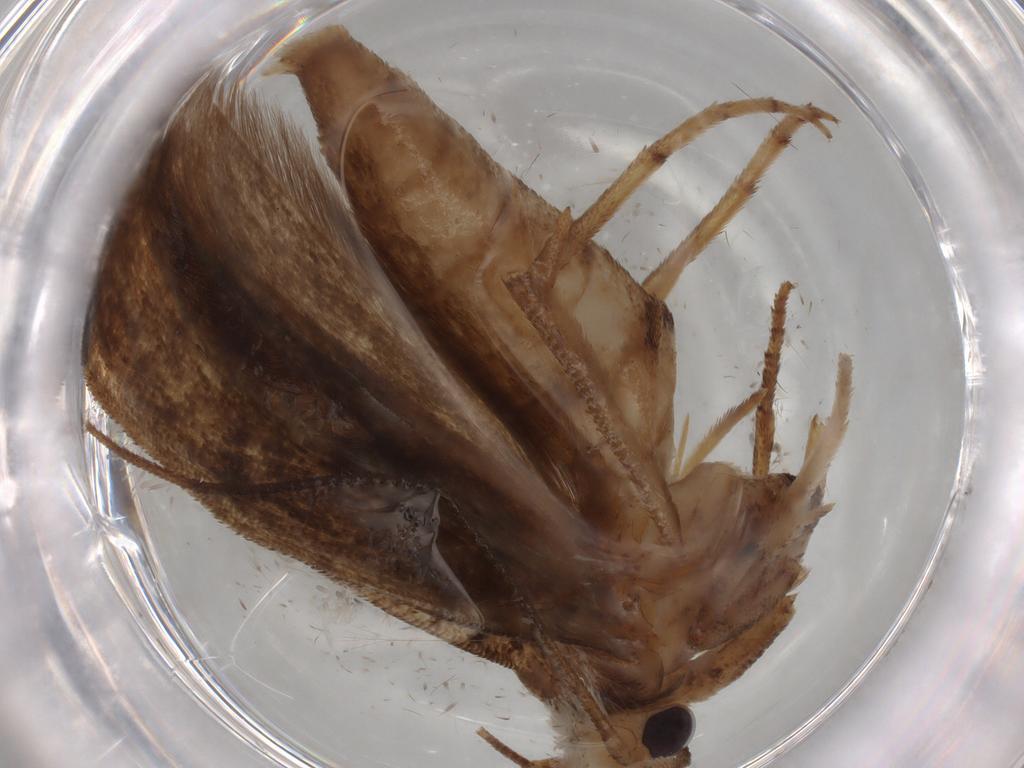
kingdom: Animalia
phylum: Arthropoda
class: Insecta
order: Lepidoptera
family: Yponomeutidae
